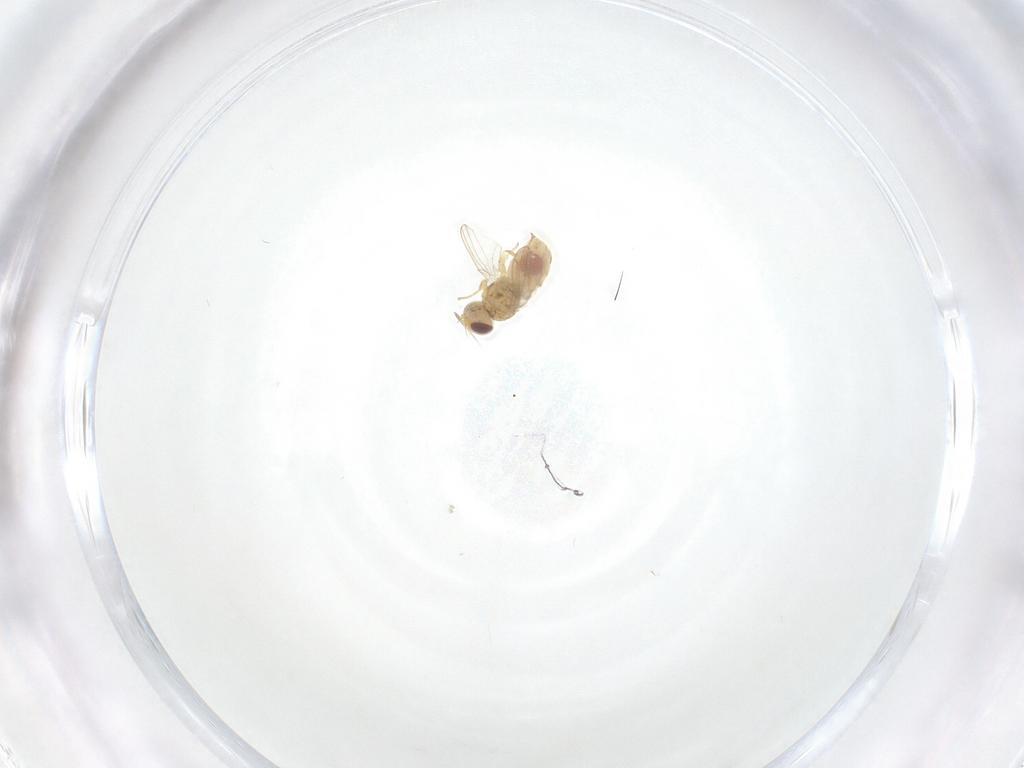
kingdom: Animalia
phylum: Arthropoda
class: Insecta
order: Diptera
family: Chyromyidae
